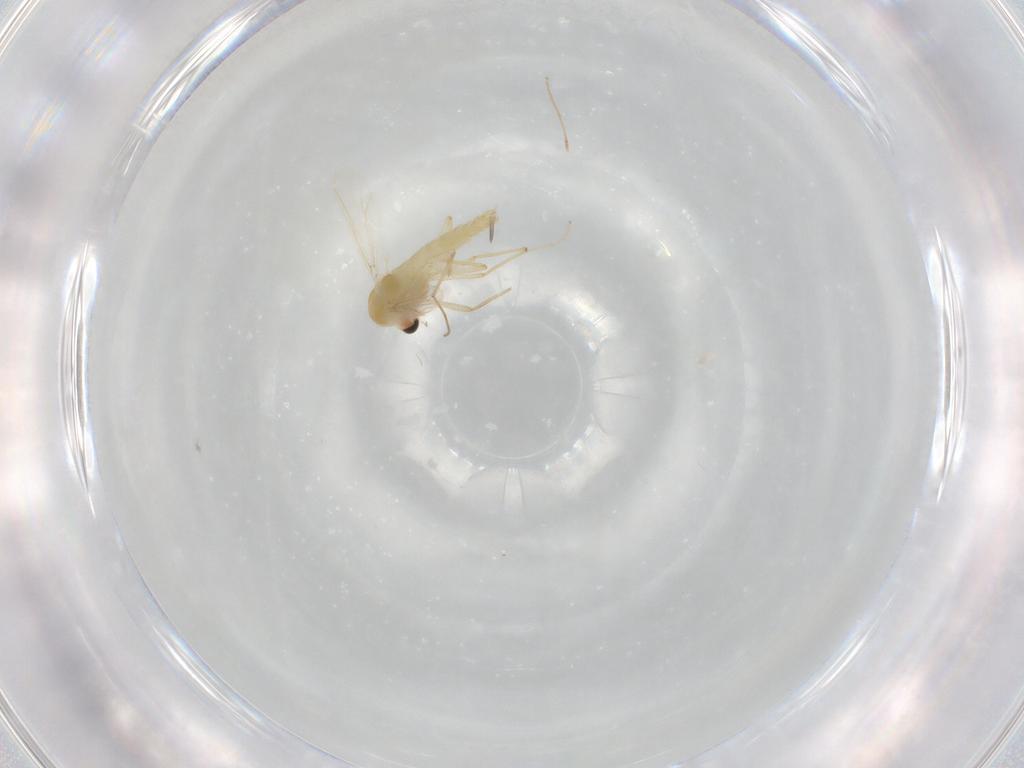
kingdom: Animalia
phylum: Arthropoda
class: Insecta
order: Diptera
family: Chironomidae
